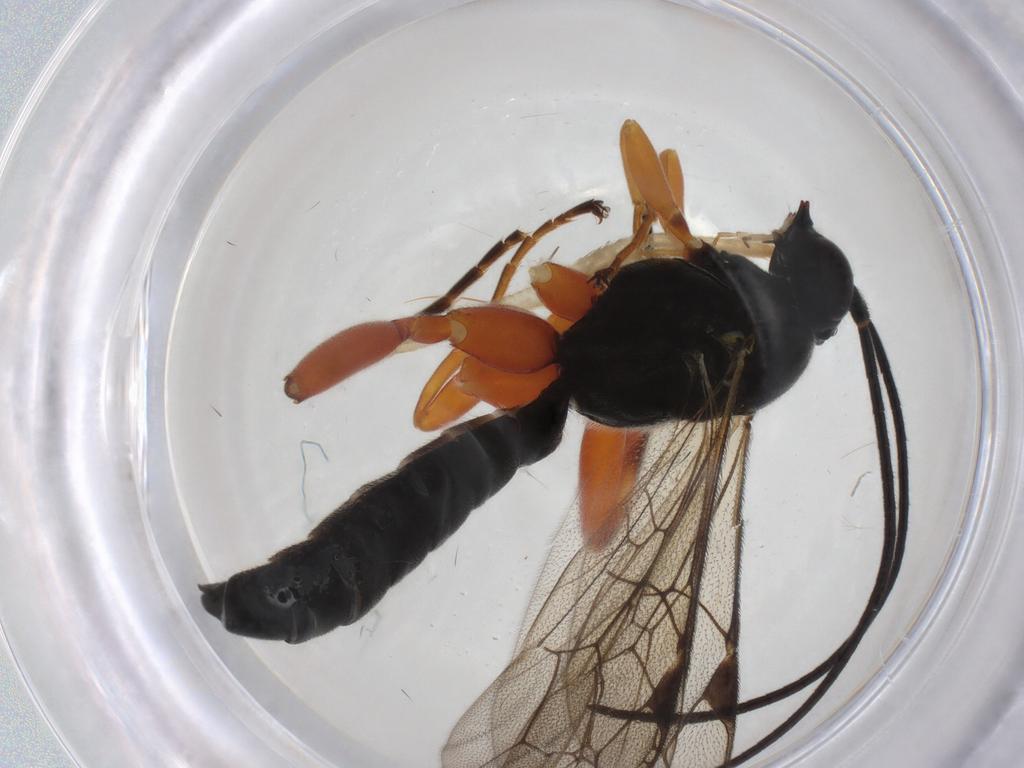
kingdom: Animalia
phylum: Arthropoda
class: Insecta
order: Hymenoptera
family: Ichneumonidae
